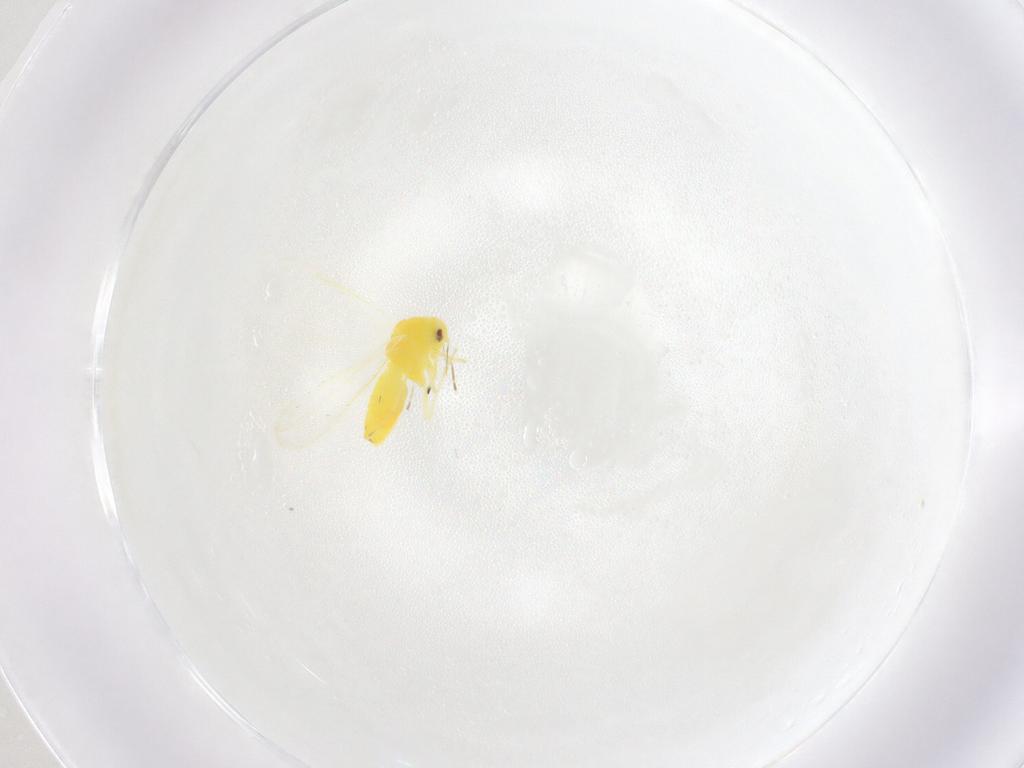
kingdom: Animalia
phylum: Arthropoda
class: Insecta
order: Hemiptera
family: Aleyrodidae
